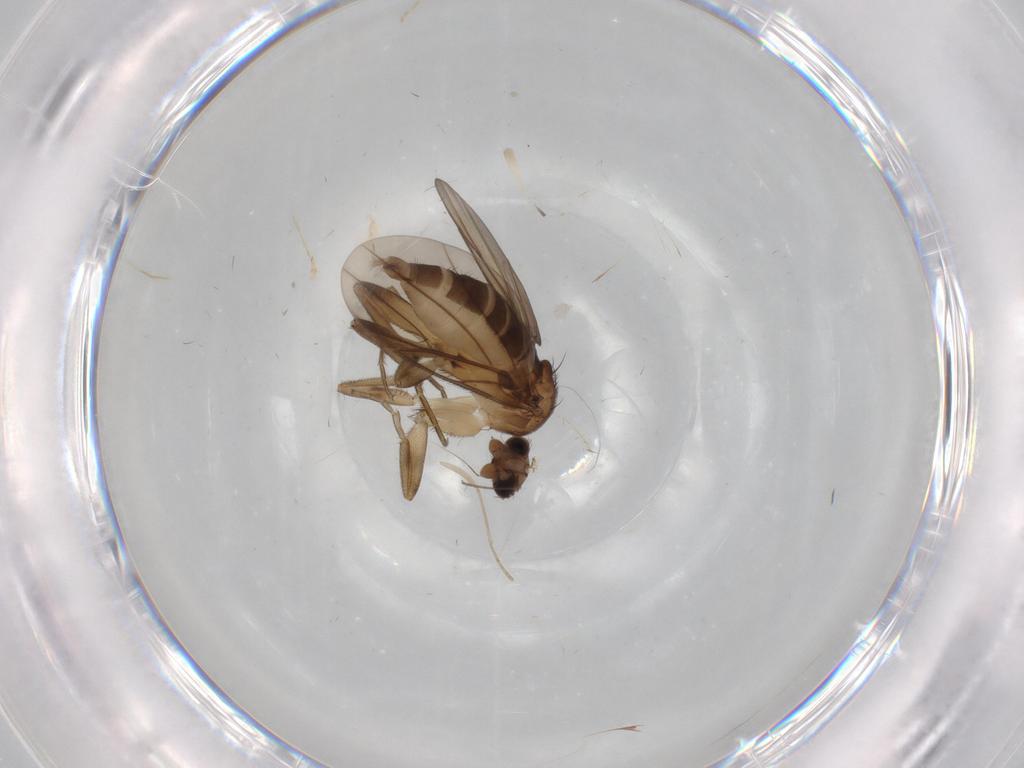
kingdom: Animalia
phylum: Arthropoda
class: Insecta
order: Diptera
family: Phoridae
